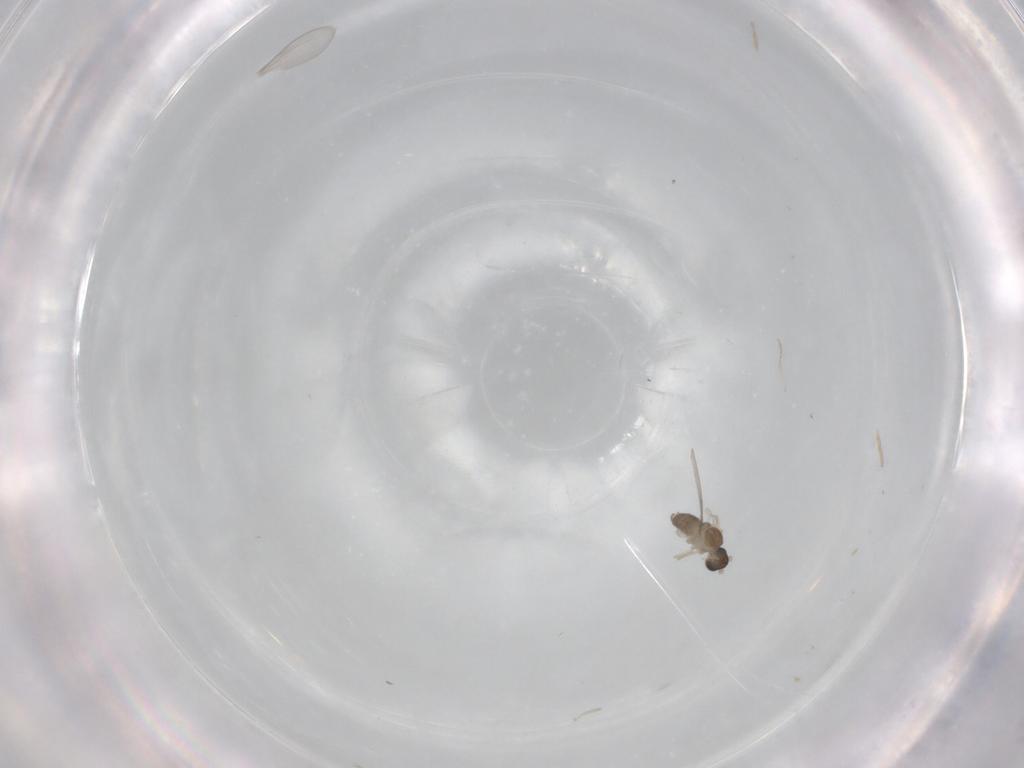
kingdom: Animalia
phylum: Arthropoda
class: Insecta
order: Diptera
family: Cecidomyiidae
